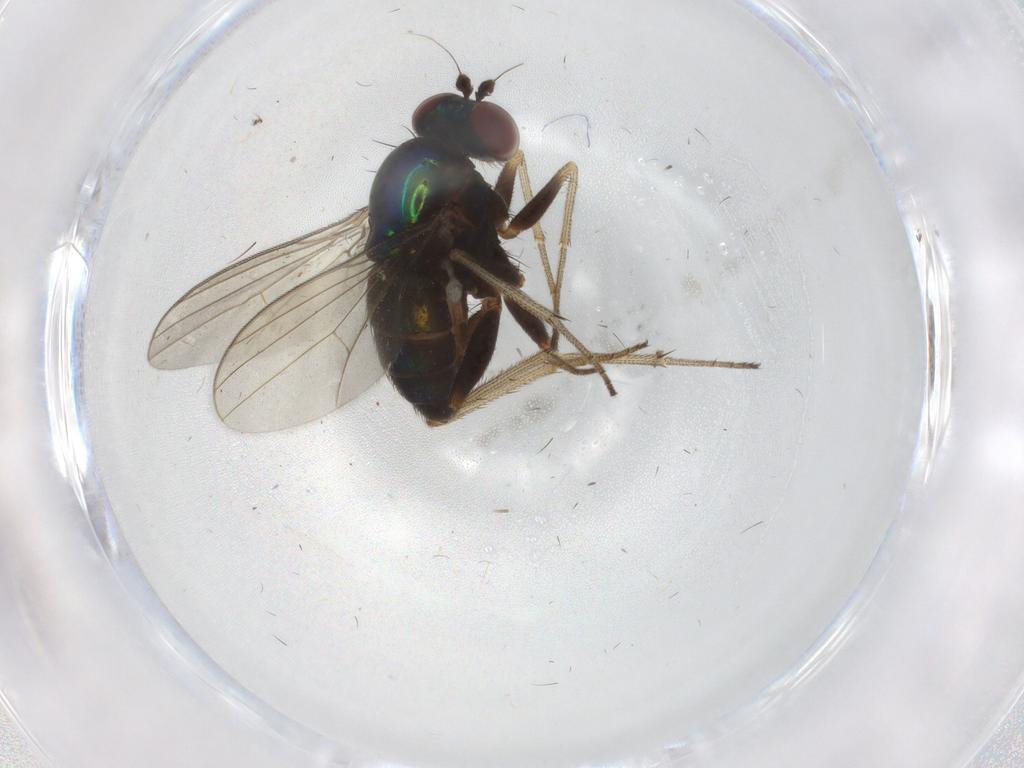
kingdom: Animalia
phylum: Arthropoda
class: Insecta
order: Diptera
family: Dolichopodidae
